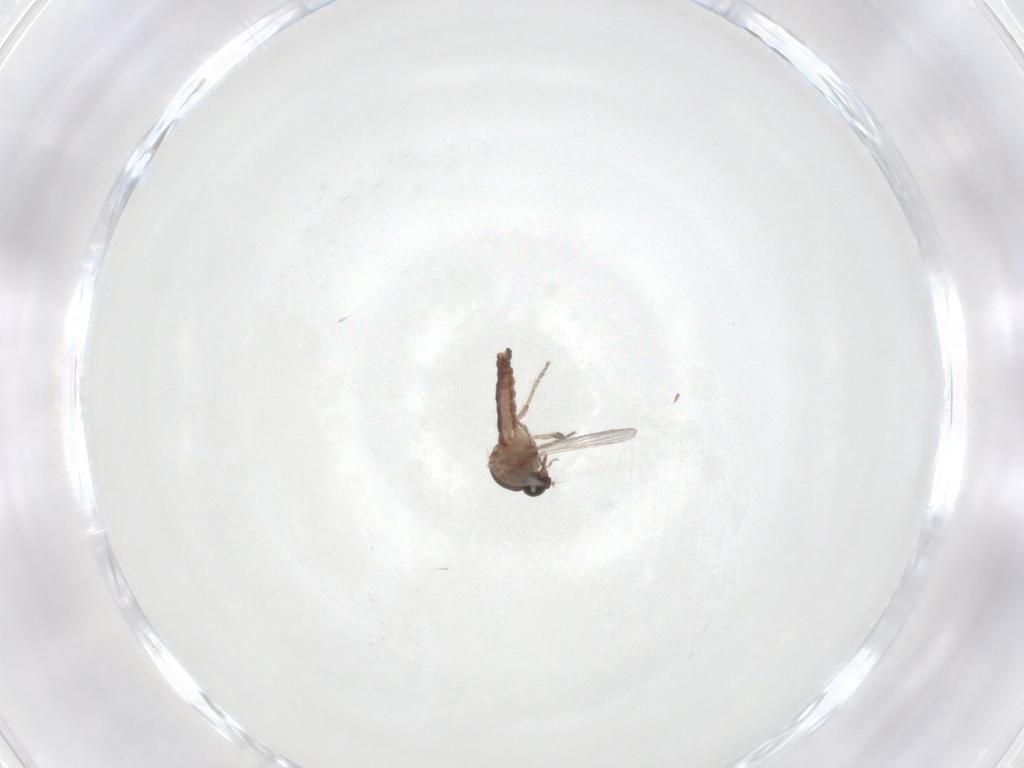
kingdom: Animalia
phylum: Arthropoda
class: Insecta
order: Diptera
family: Ceratopogonidae
